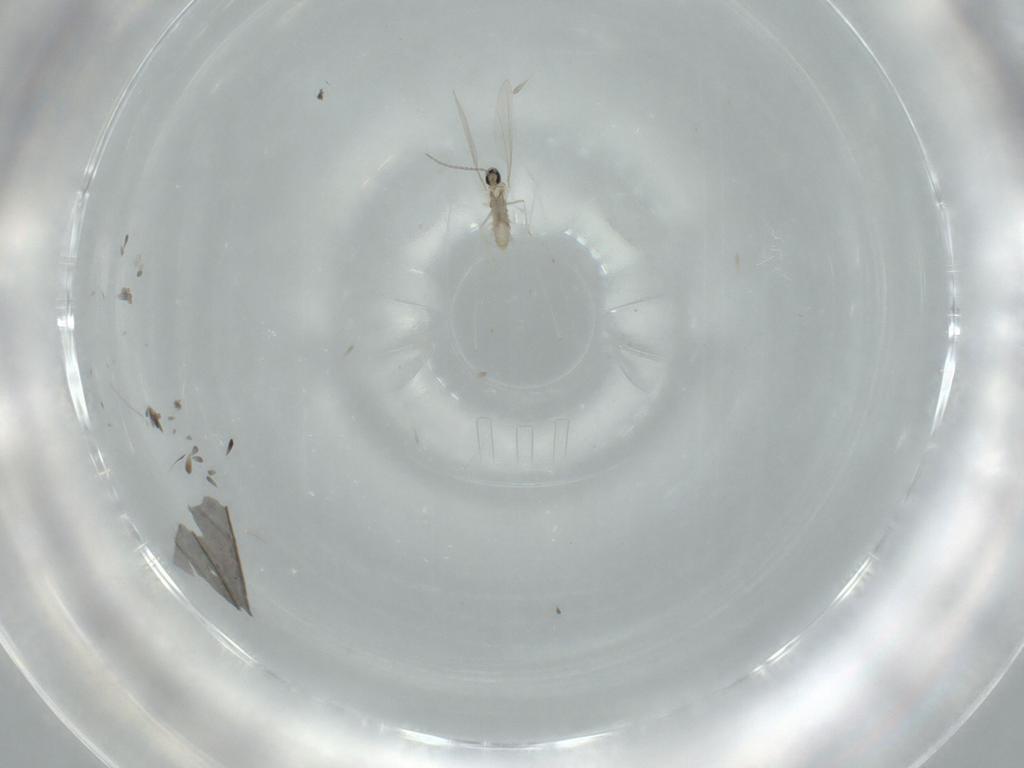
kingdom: Animalia
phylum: Arthropoda
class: Insecta
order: Diptera
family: Cecidomyiidae
